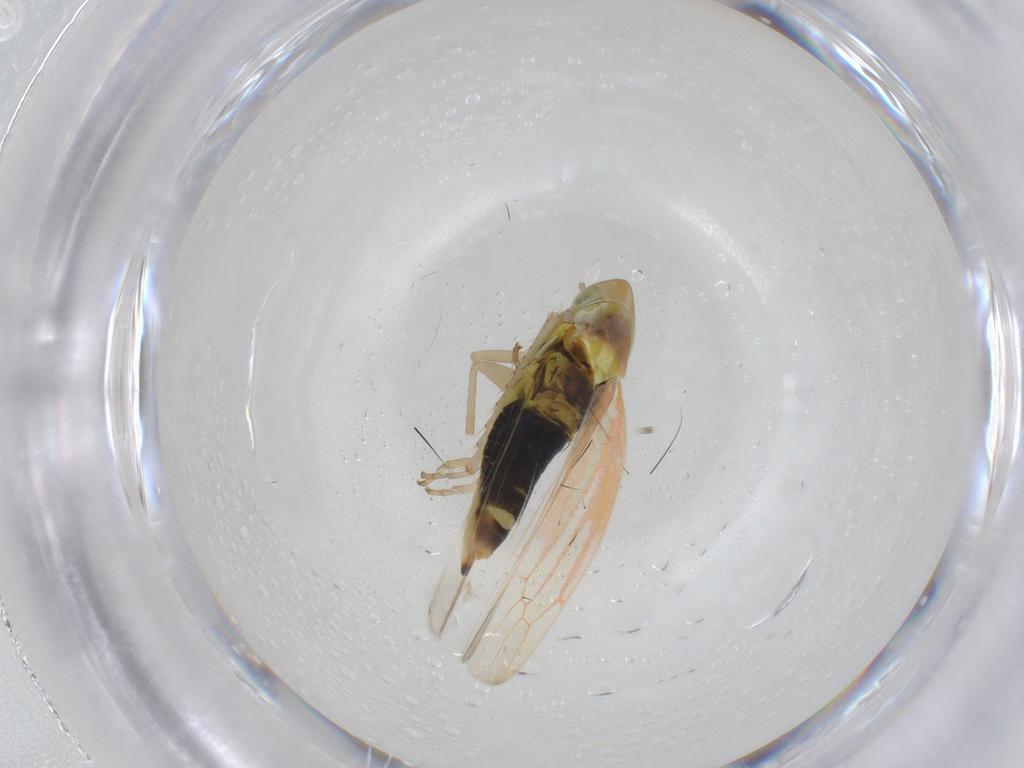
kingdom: Animalia
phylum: Arthropoda
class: Insecta
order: Hemiptera
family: Cicadellidae
